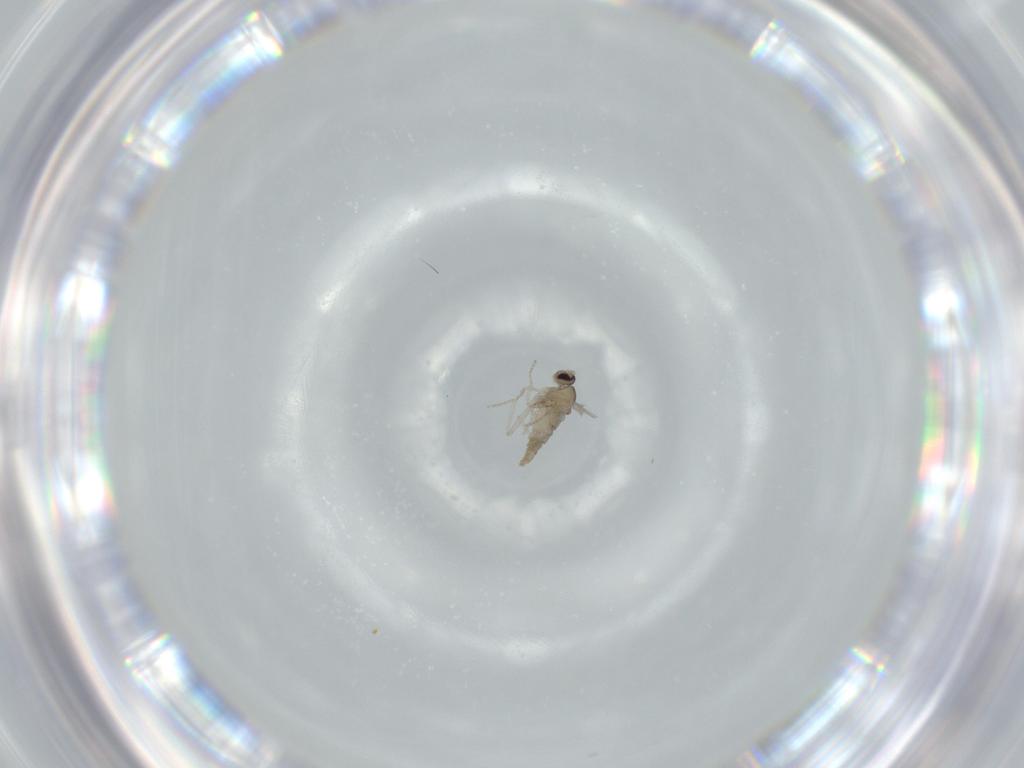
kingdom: Animalia
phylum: Arthropoda
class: Insecta
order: Diptera
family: Cecidomyiidae
